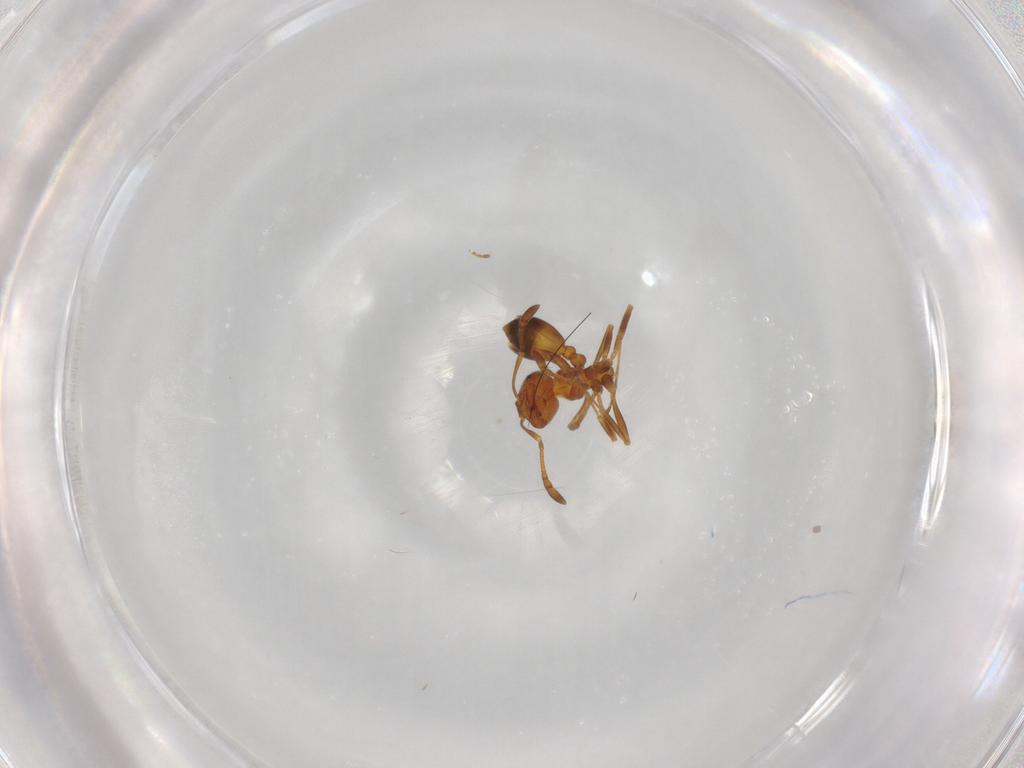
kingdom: Animalia
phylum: Arthropoda
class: Insecta
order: Hymenoptera
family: Formicidae
